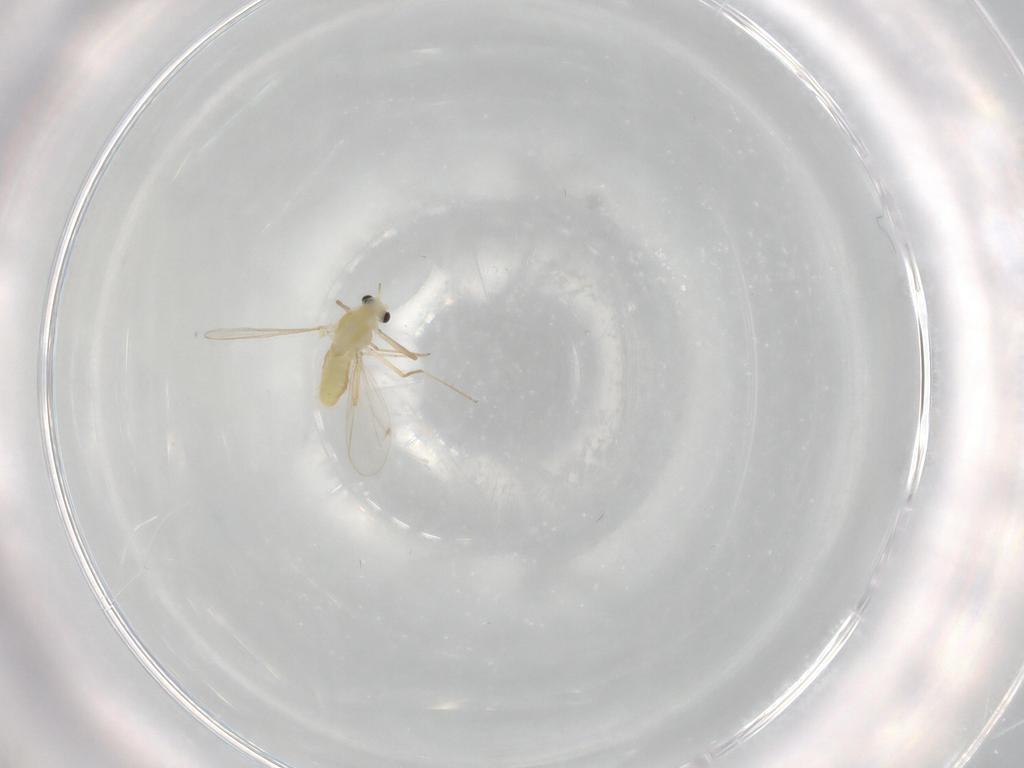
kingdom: Animalia
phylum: Arthropoda
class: Insecta
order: Diptera
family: Chironomidae
